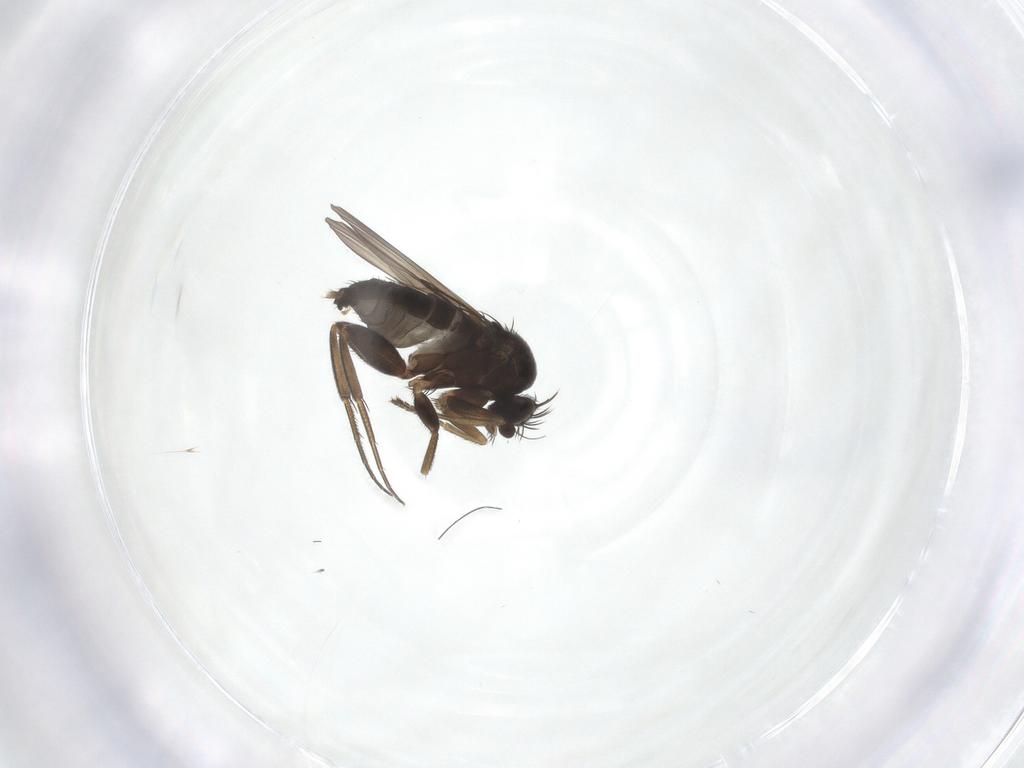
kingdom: Animalia
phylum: Arthropoda
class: Insecta
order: Diptera
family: Phoridae
